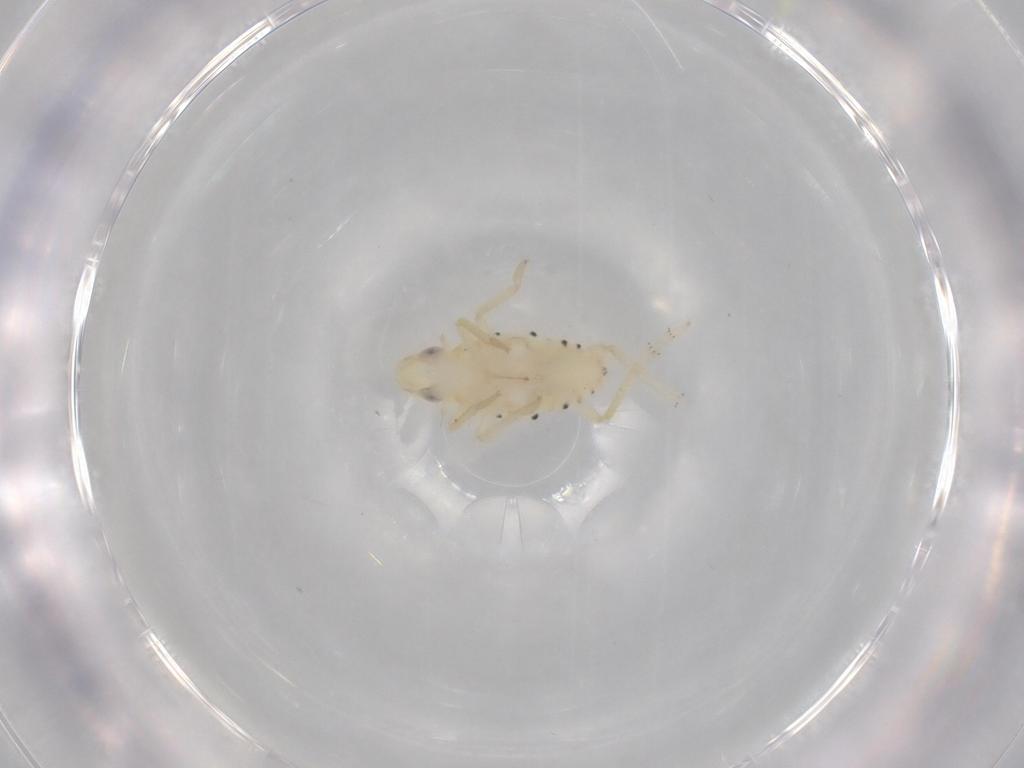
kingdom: Animalia
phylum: Arthropoda
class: Insecta
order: Hemiptera
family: Tropiduchidae
